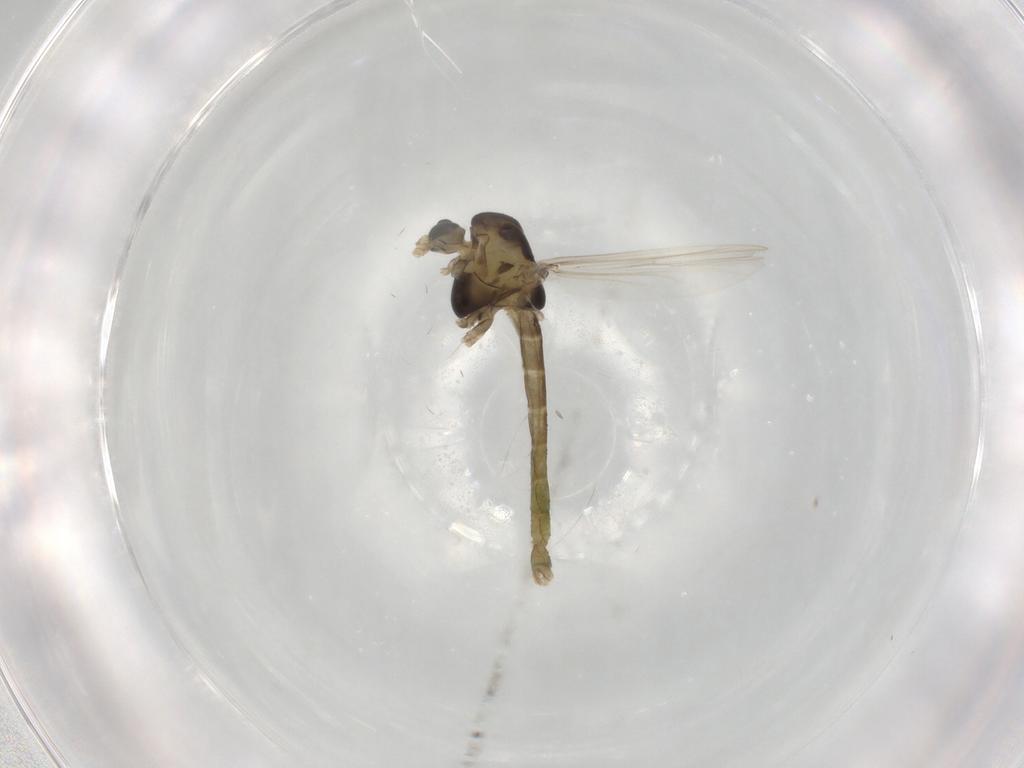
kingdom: Animalia
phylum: Arthropoda
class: Insecta
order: Diptera
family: Chironomidae
